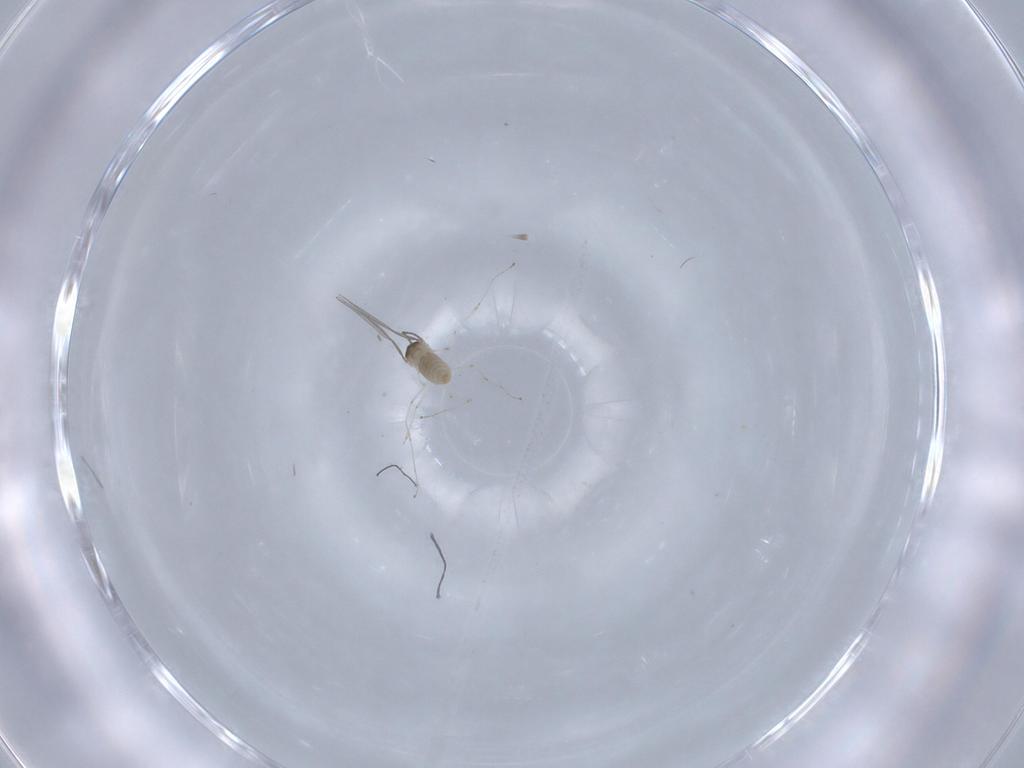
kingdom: Animalia
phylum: Arthropoda
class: Insecta
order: Diptera
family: Cecidomyiidae
